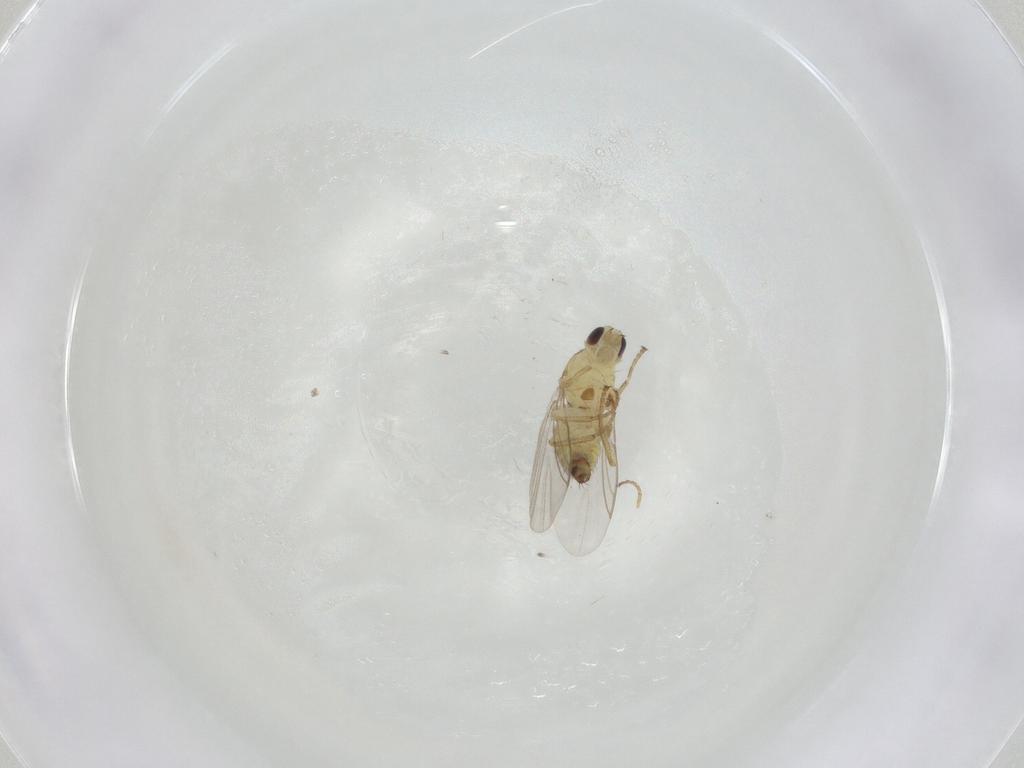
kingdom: Animalia
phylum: Arthropoda
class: Insecta
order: Diptera
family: Agromyzidae
